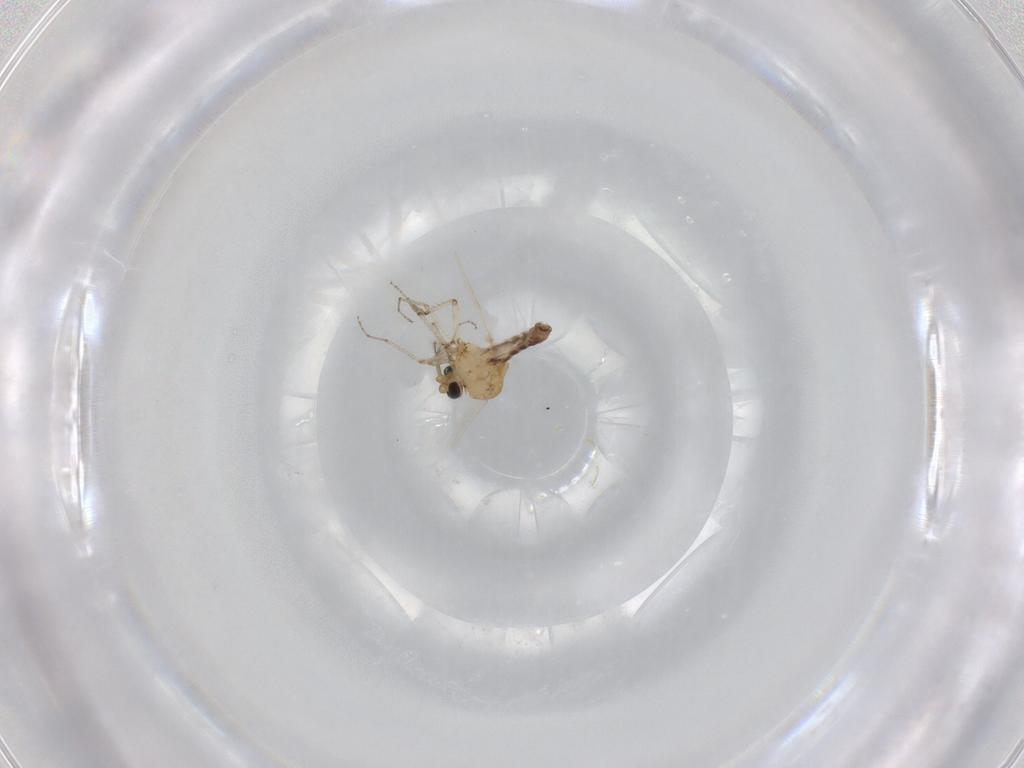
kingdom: Animalia
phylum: Arthropoda
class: Insecta
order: Diptera
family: Ceratopogonidae
